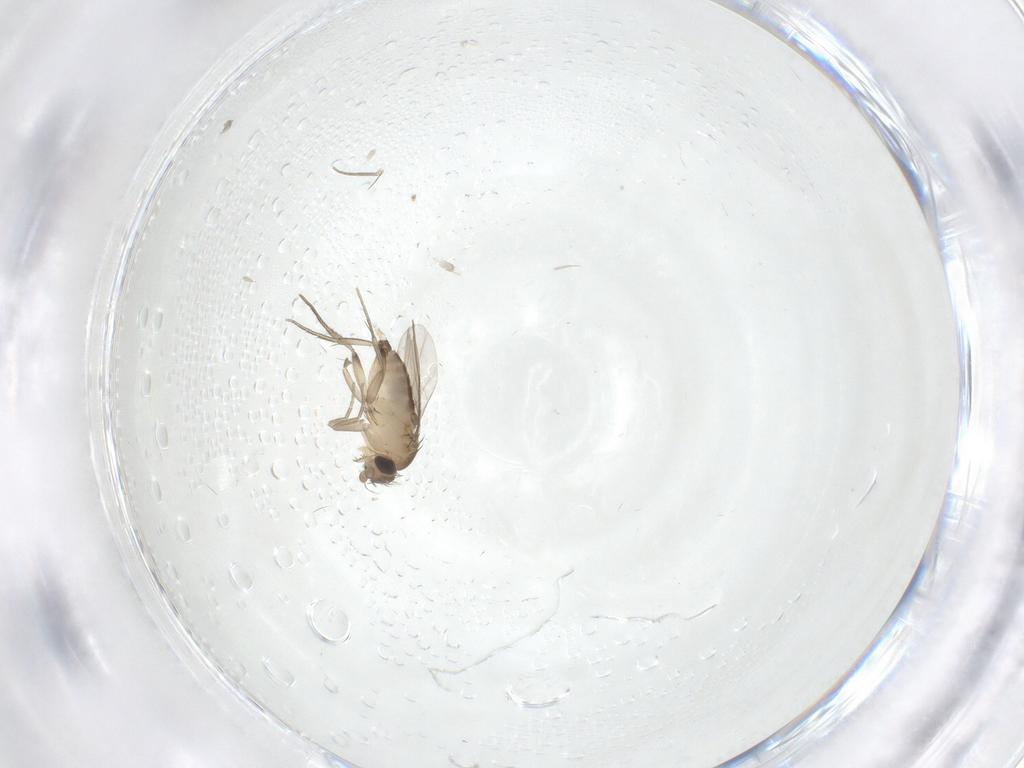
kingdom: Animalia
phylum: Arthropoda
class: Insecta
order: Diptera
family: Phoridae
